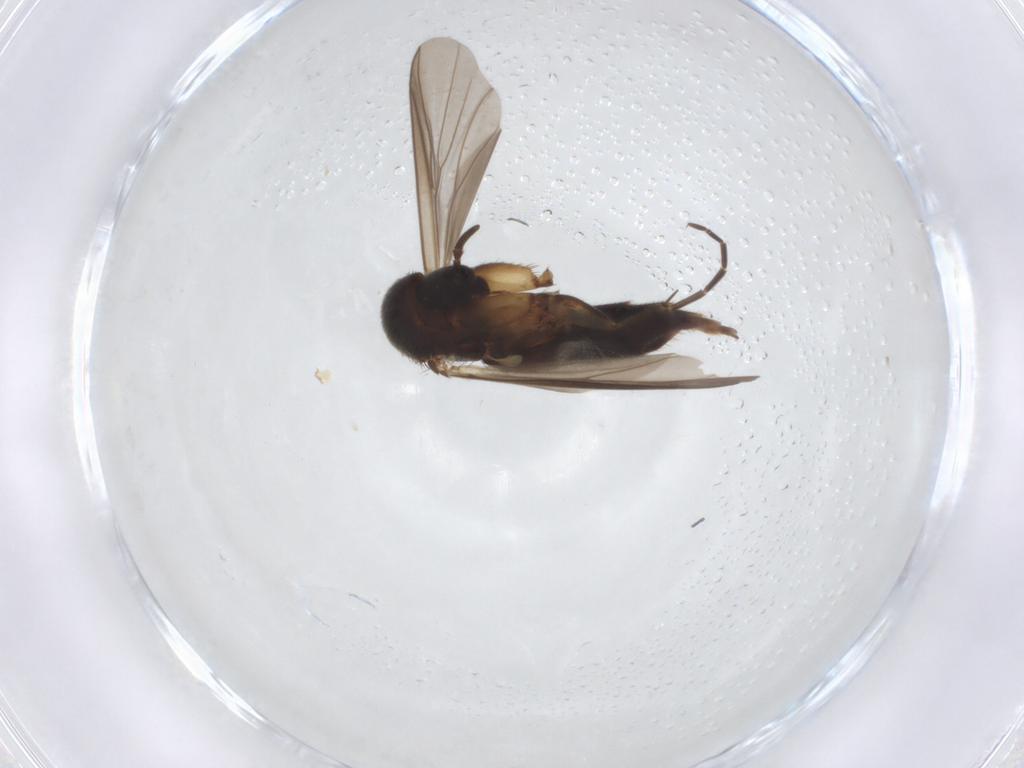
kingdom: Animalia
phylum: Arthropoda
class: Insecta
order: Diptera
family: Mycetophilidae
